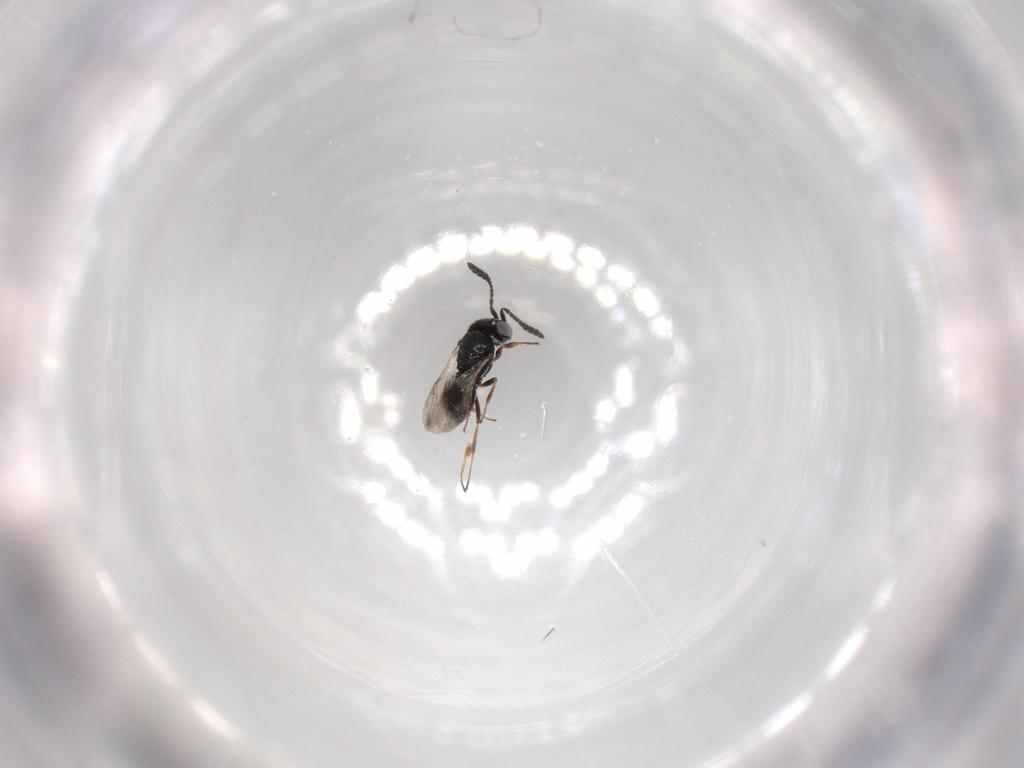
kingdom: Animalia
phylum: Arthropoda
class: Insecta
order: Hymenoptera
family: Scelionidae
